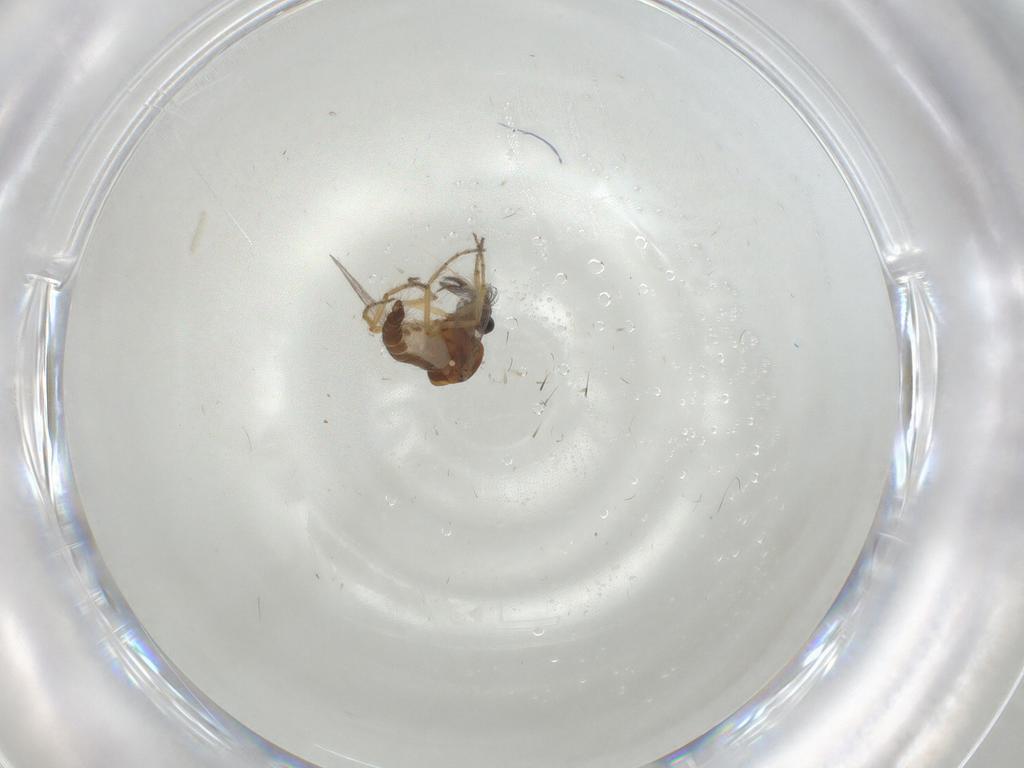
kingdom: Animalia
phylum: Arthropoda
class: Insecta
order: Diptera
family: Ceratopogonidae
